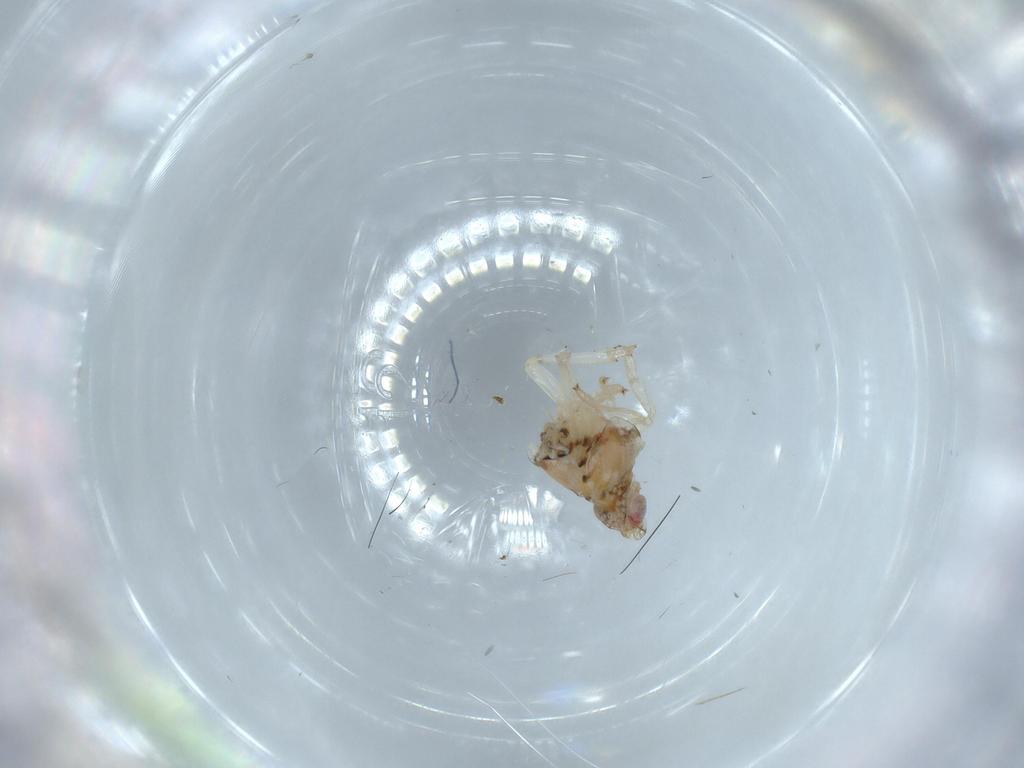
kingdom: Animalia
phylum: Arthropoda
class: Insecta
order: Hemiptera
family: Nogodinidae
